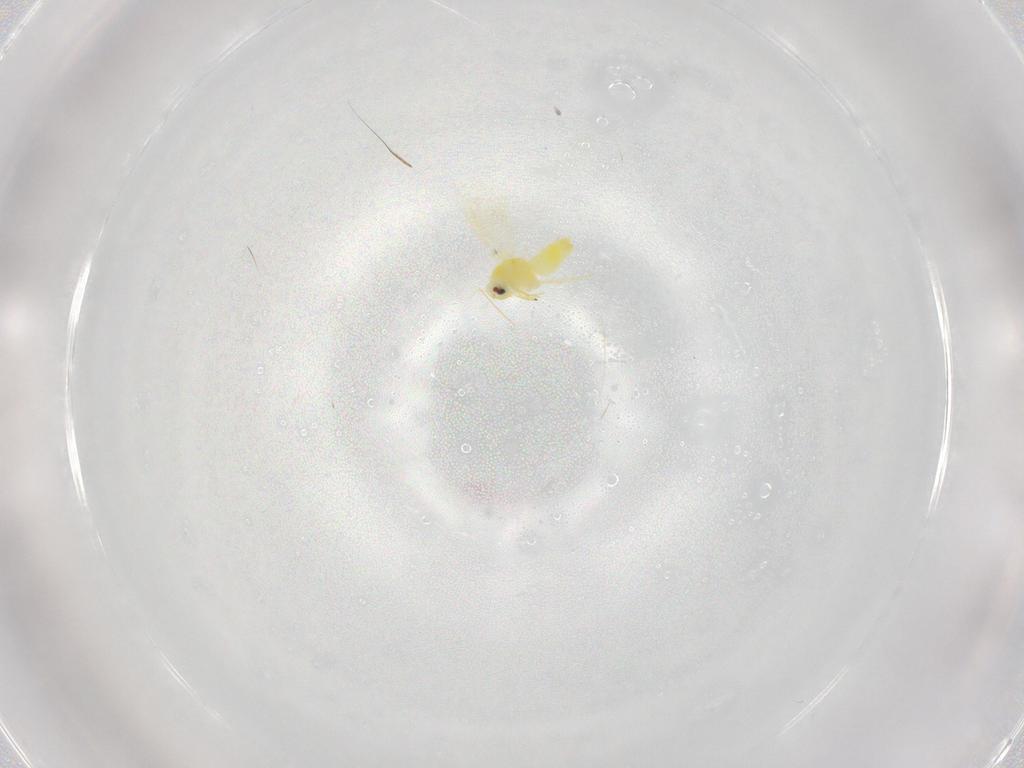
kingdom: Animalia
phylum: Arthropoda
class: Insecta
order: Hemiptera
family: Aleyrodidae
